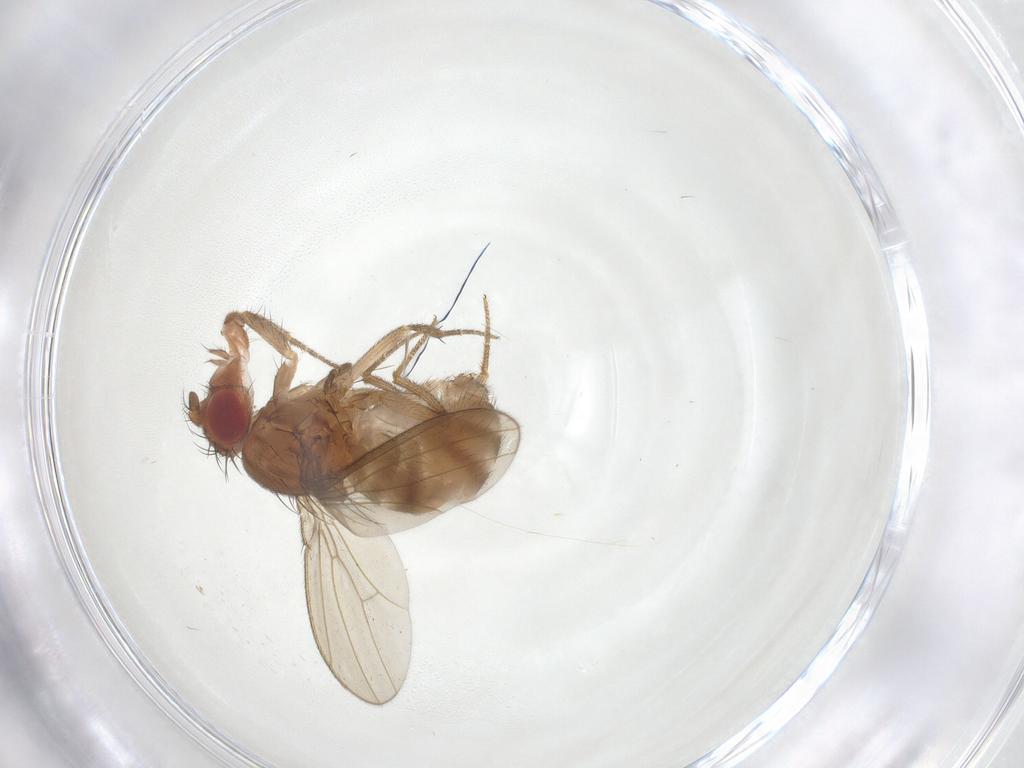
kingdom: Animalia
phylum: Arthropoda
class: Insecta
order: Diptera
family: Drosophilidae
